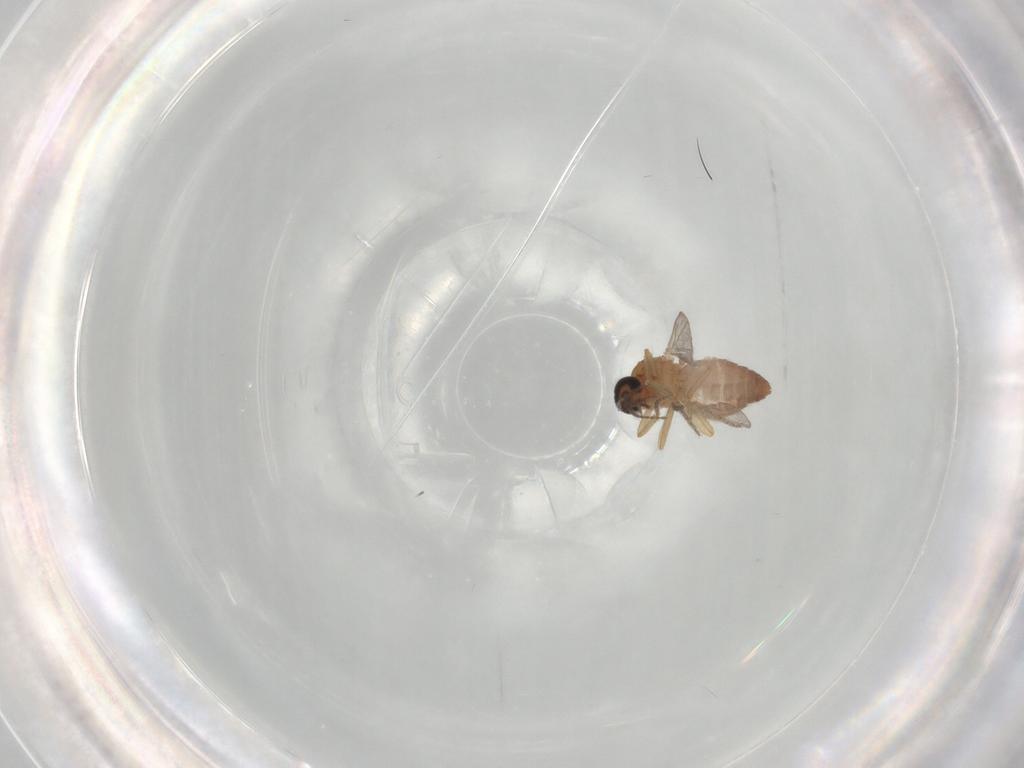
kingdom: Animalia
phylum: Arthropoda
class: Insecta
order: Diptera
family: Ceratopogonidae
